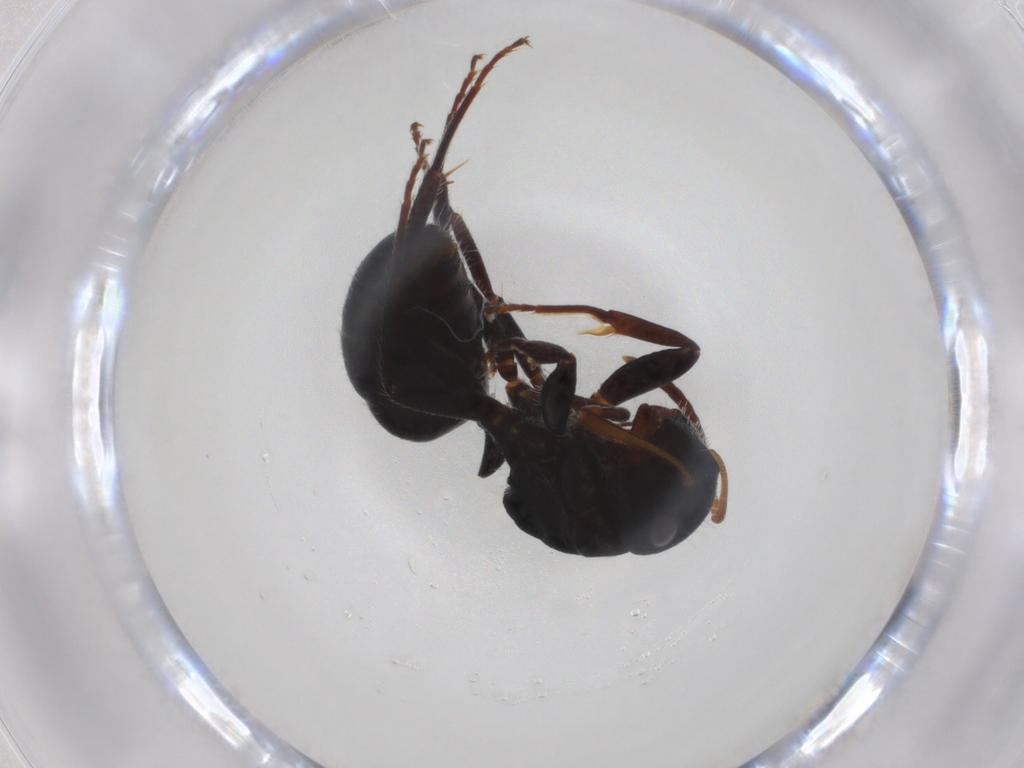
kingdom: Animalia
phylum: Arthropoda
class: Insecta
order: Hymenoptera
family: Formicidae
